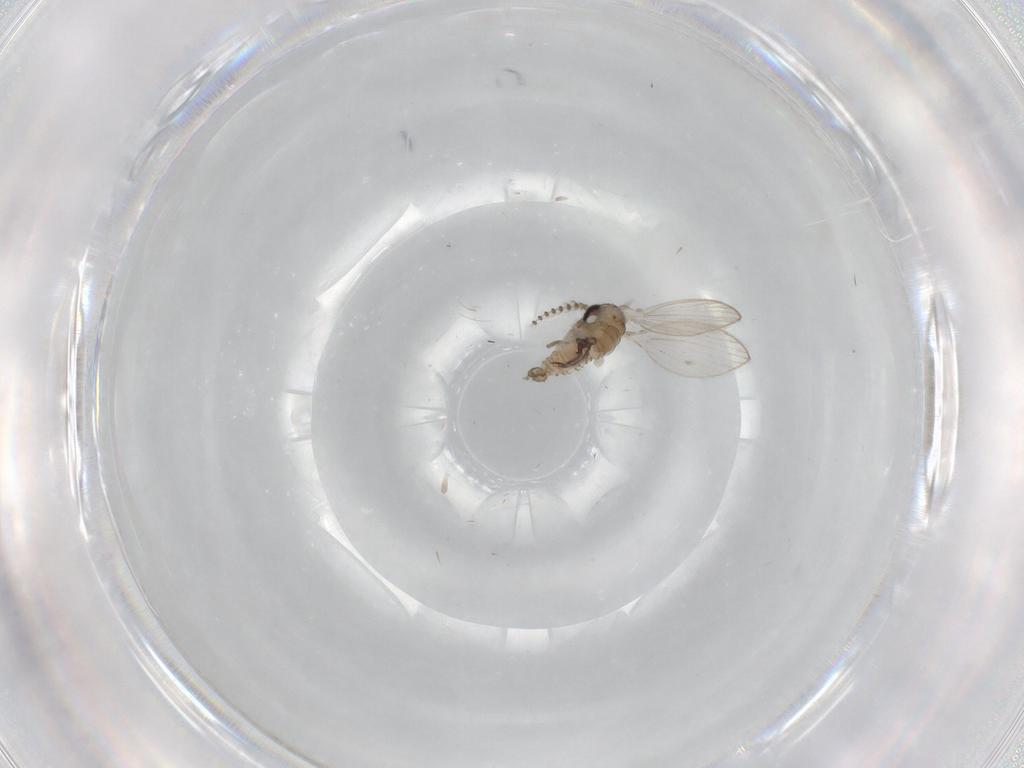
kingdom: Animalia
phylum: Arthropoda
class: Insecta
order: Diptera
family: Psychodidae
